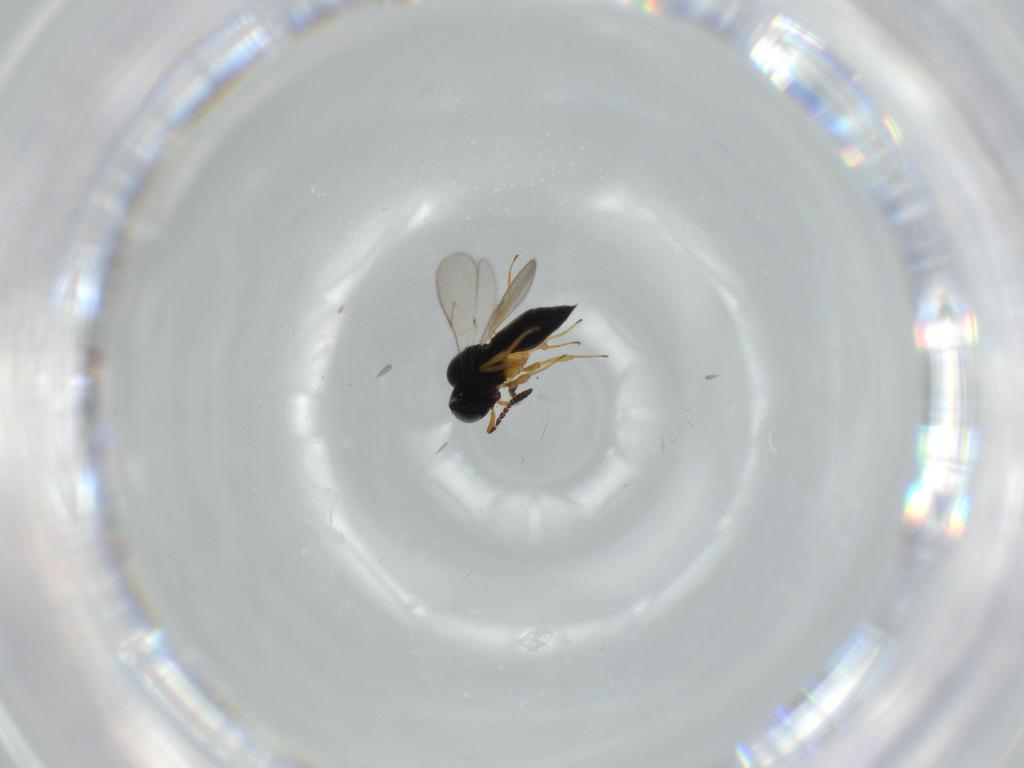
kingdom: Animalia
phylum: Arthropoda
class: Insecta
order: Hymenoptera
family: Scelionidae
